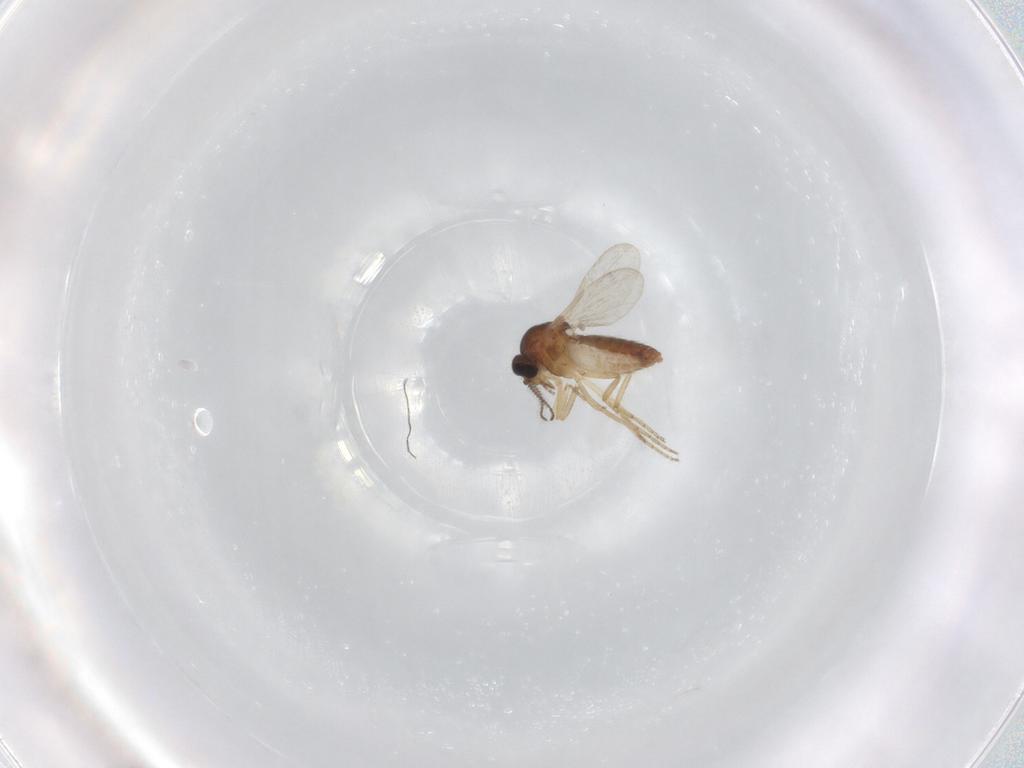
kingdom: Animalia
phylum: Arthropoda
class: Insecta
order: Diptera
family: Ceratopogonidae
